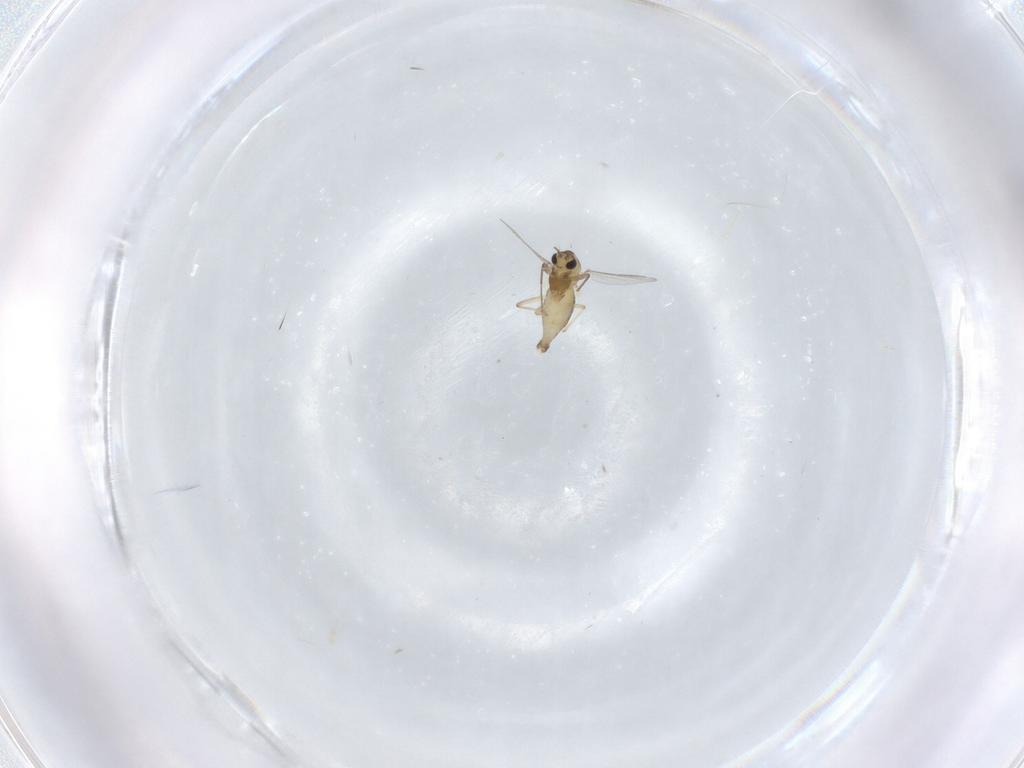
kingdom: Animalia
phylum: Arthropoda
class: Insecta
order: Diptera
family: Chironomidae
